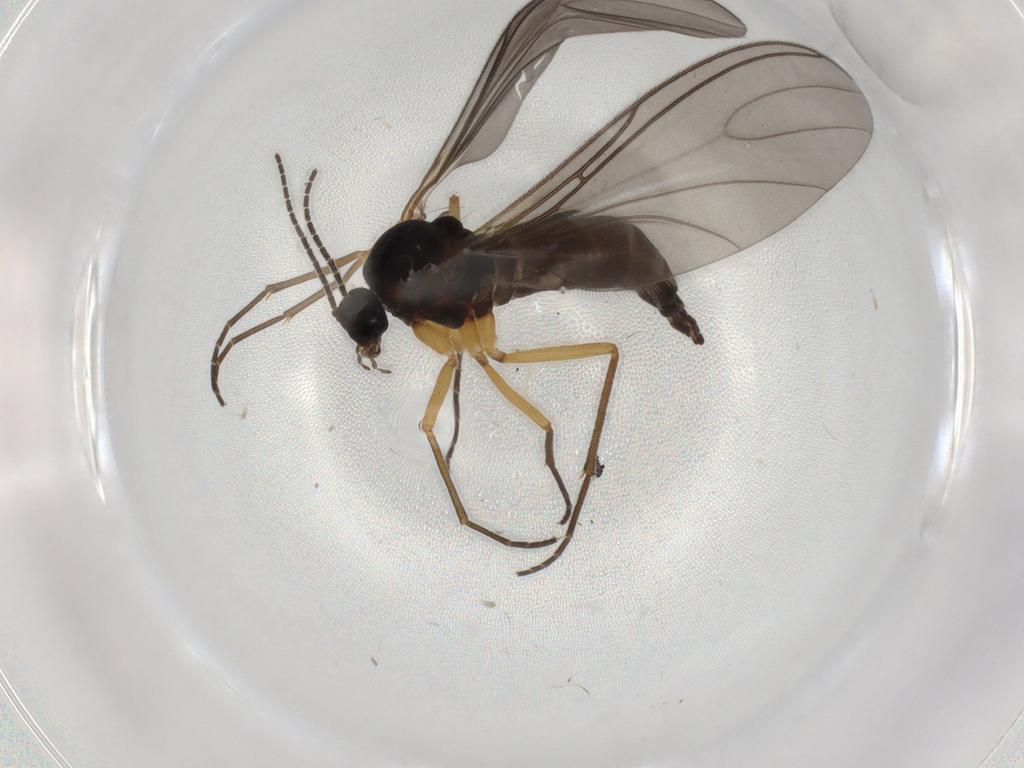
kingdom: Animalia
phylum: Arthropoda
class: Insecta
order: Diptera
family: Sciaridae
